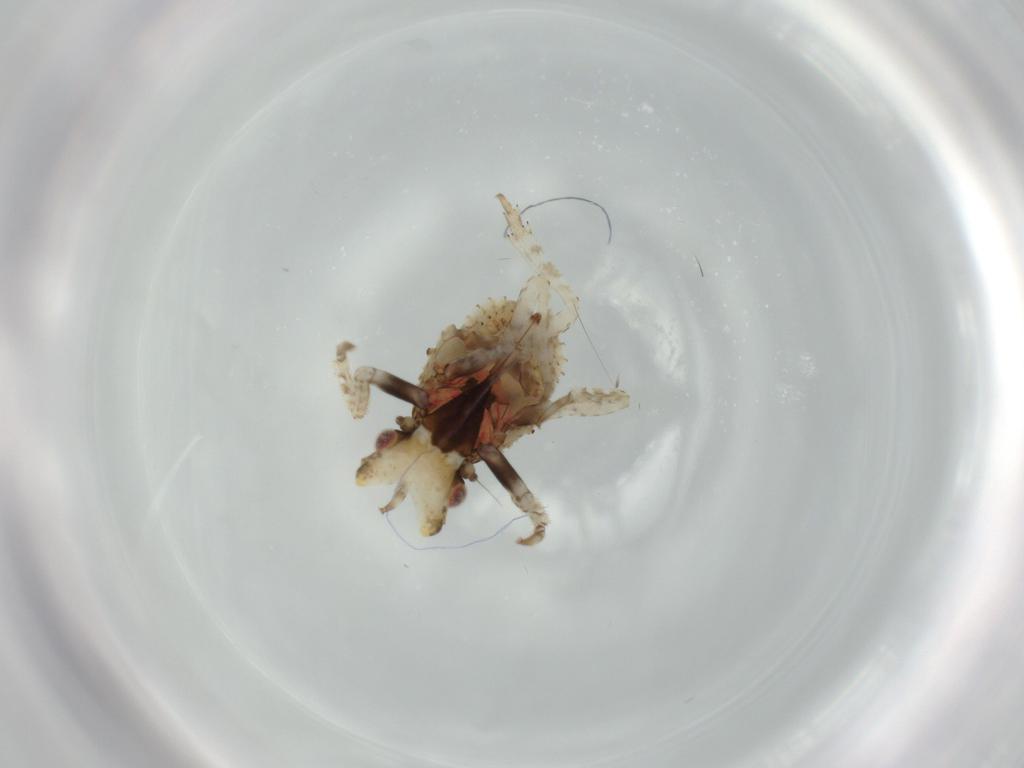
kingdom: Animalia
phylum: Arthropoda
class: Insecta
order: Hemiptera
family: Fulgoridae
